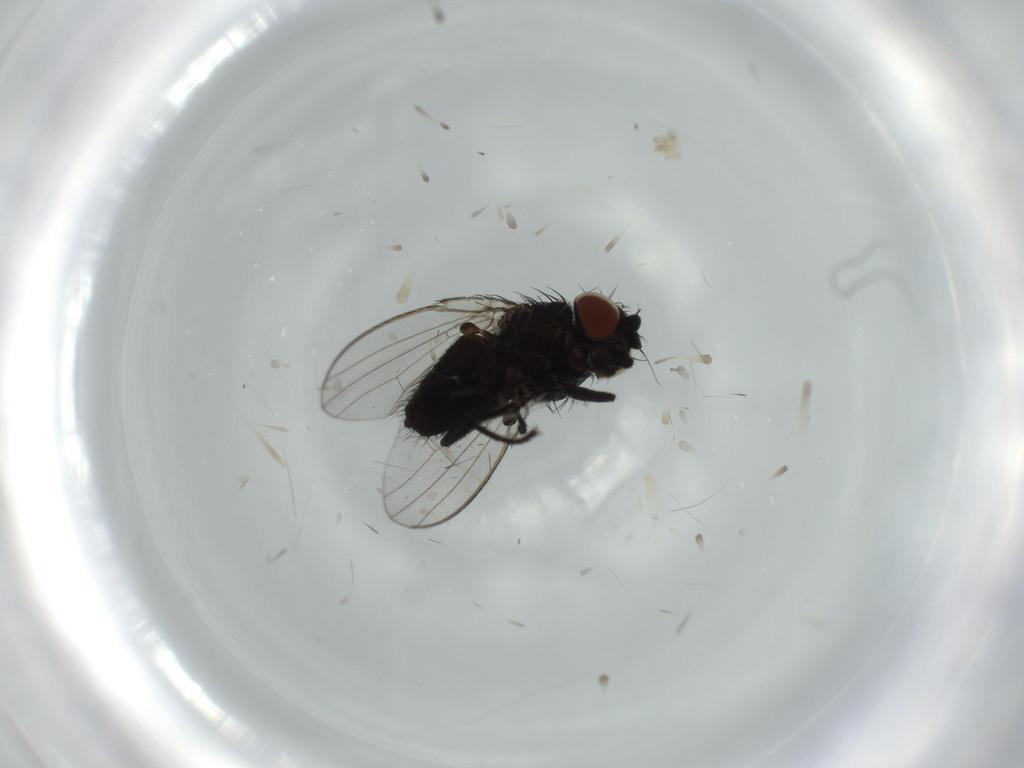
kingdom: Animalia
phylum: Arthropoda
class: Insecta
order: Diptera
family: Milichiidae
